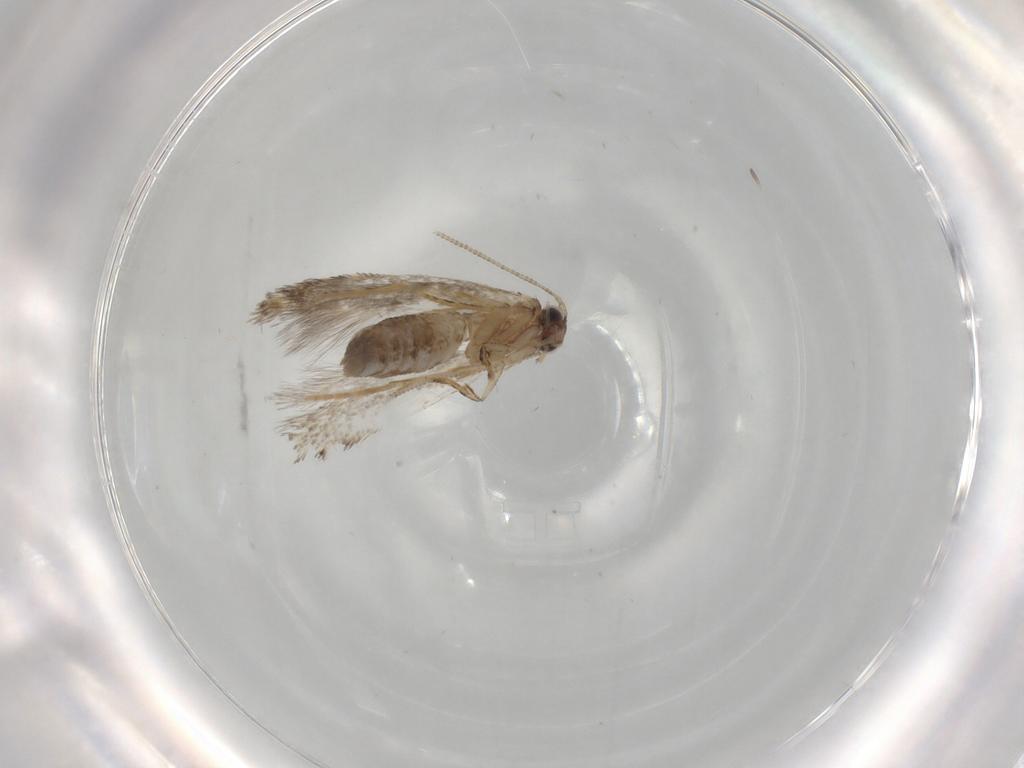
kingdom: Animalia
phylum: Arthropoda
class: Insecta
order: Lepidoptera
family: Tineidae
